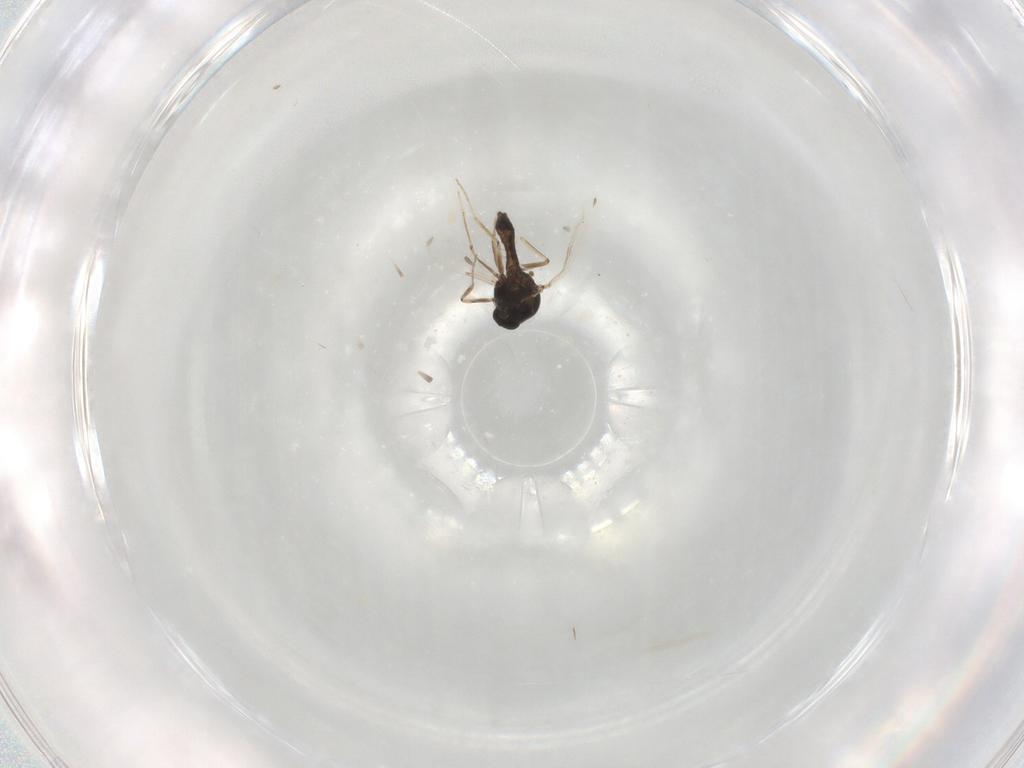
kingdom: Animalia
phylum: Arthropoda
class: Insecta
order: Diptera
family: Ceratopogonidae
